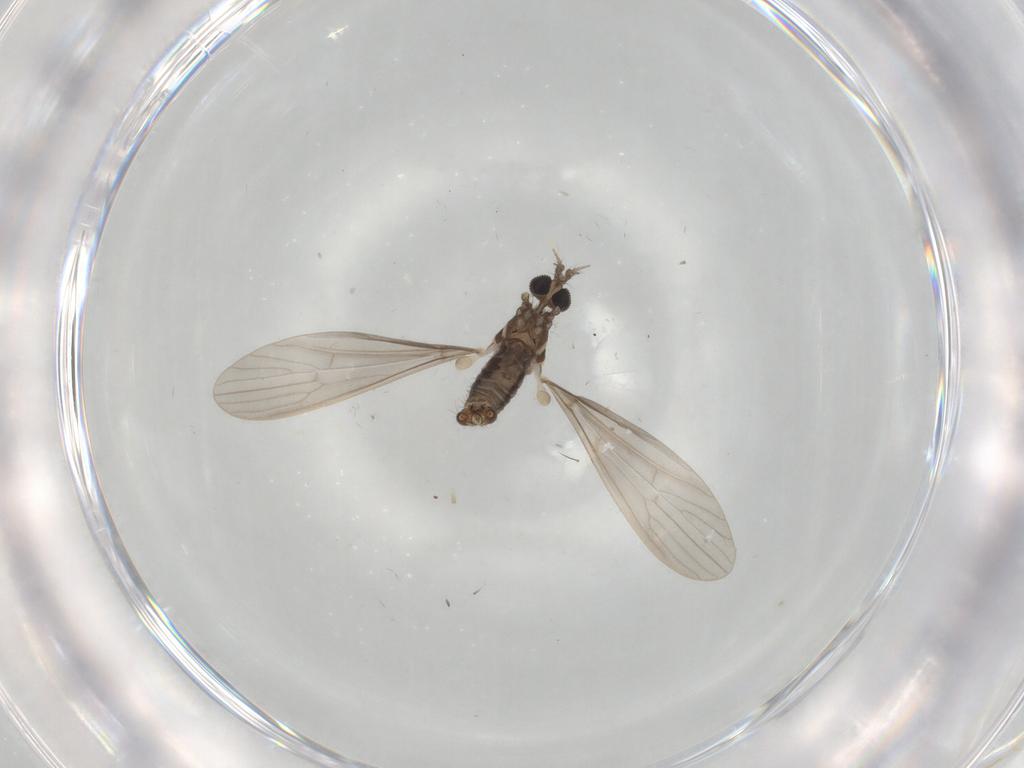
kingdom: Animalia
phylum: Arthropoda
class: Insecta
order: Diptera
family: Limoniidae
